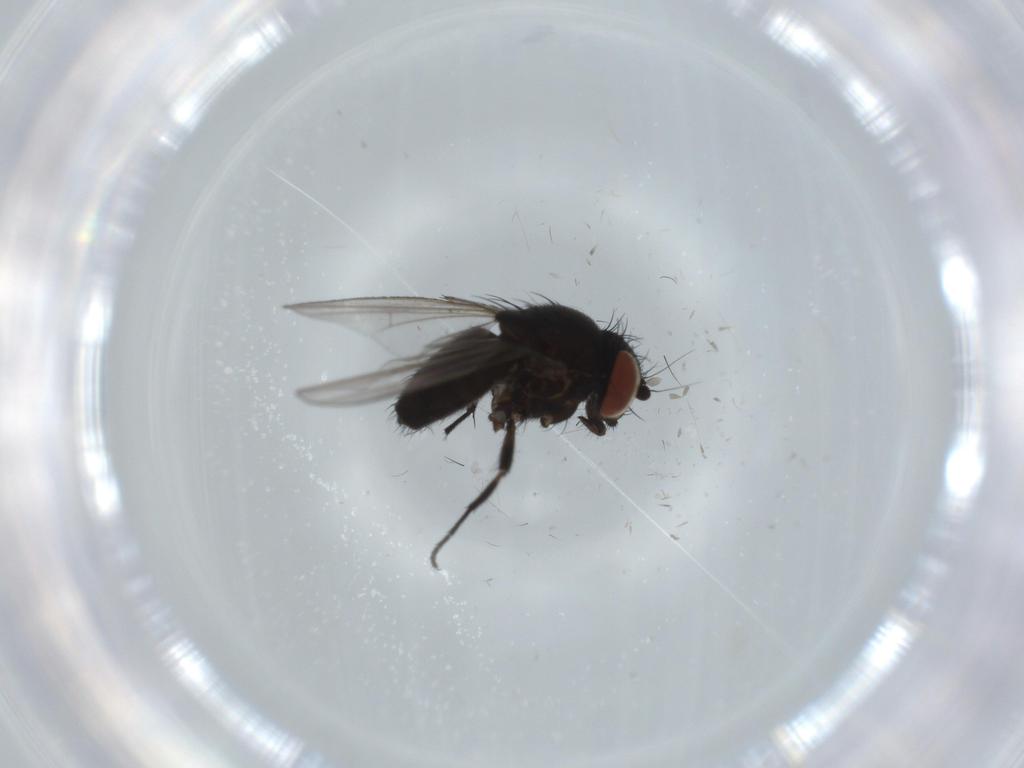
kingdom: Animalia
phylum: Arthropoda
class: Insecta
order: Diptera
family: Milichiidae
